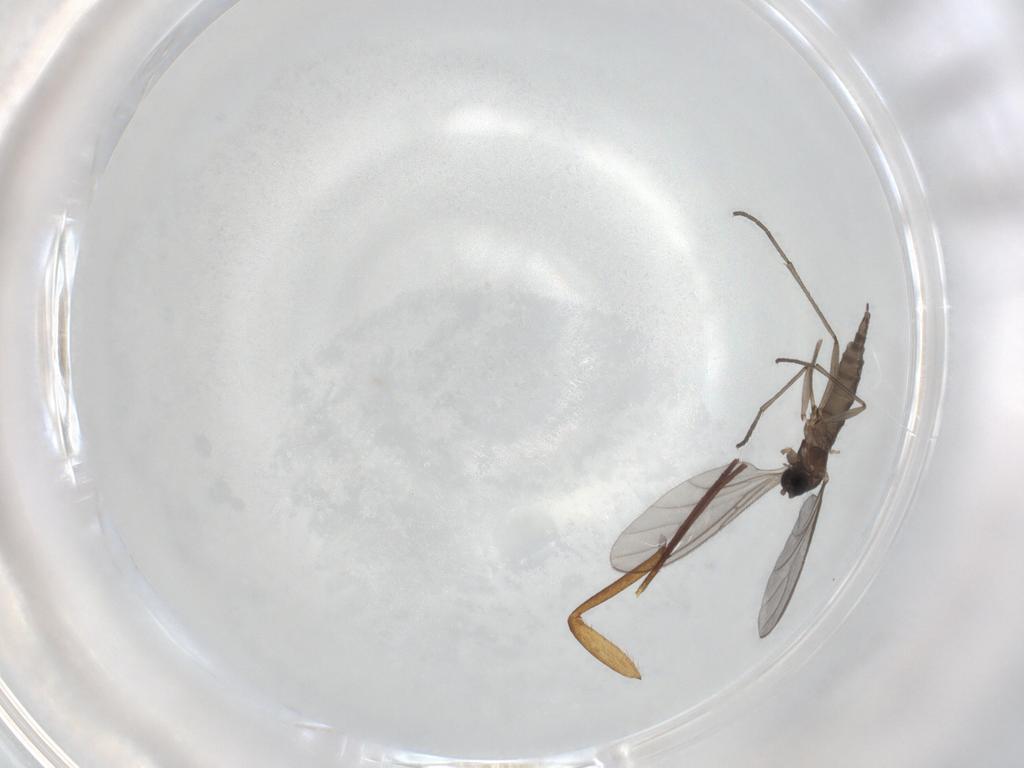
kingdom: Animalia
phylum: Arthropoda
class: Insecta
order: Diptera
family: Sciaridae
